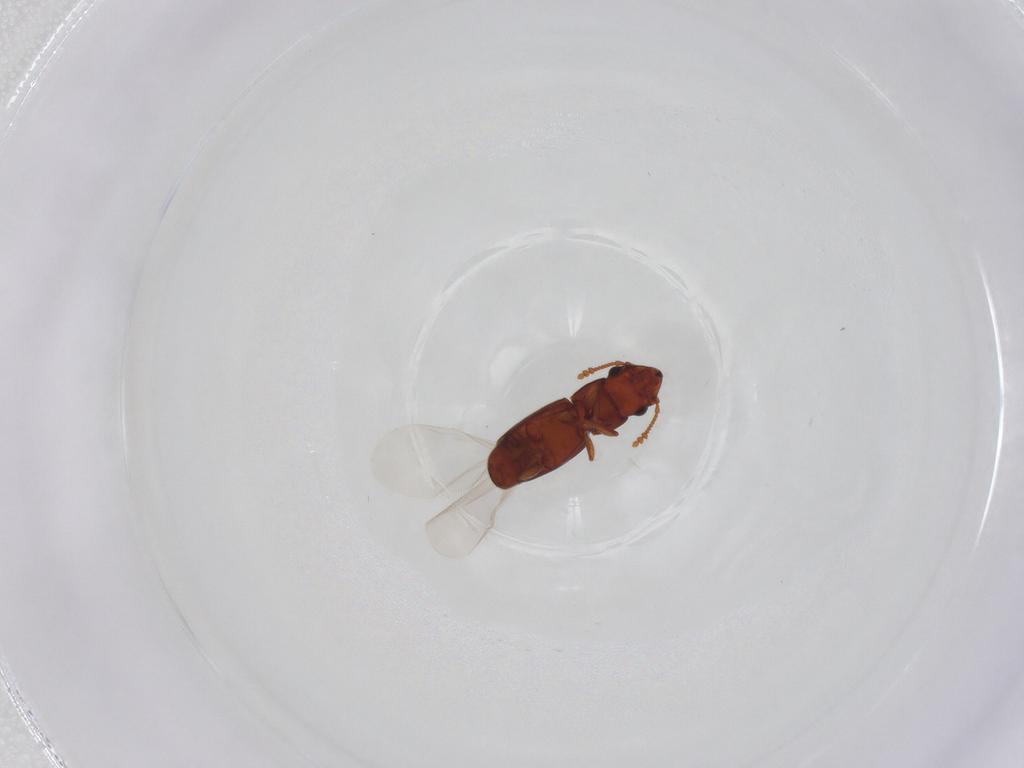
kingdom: Animalia
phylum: Arthropoda
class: Insecta
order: Coleoptera
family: Smicripidae
